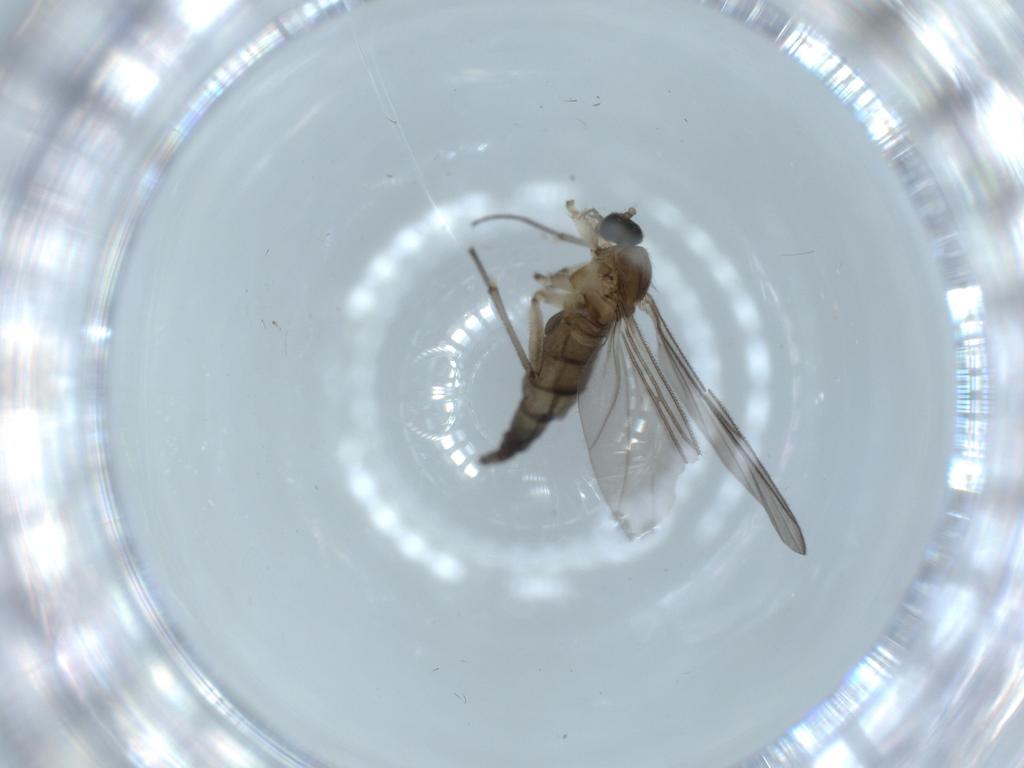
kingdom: Animalia
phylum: Arthropoda
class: Insecta
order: Diptera
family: Sciaridae
